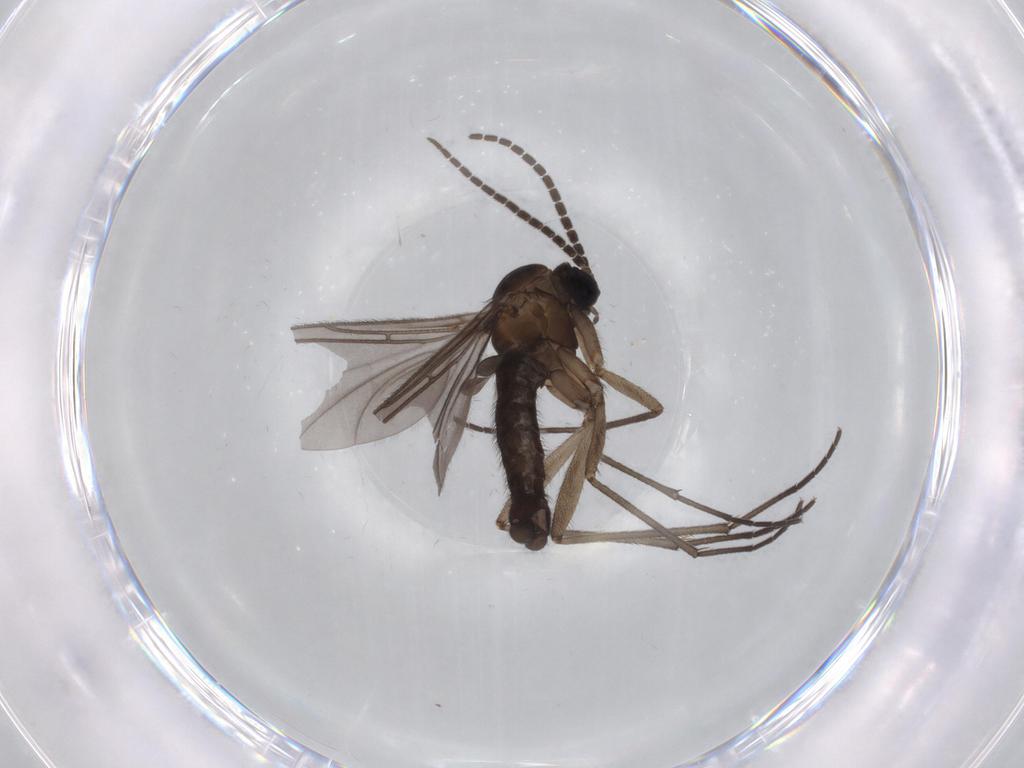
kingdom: Animalia
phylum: Arthropoda
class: Insecta
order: Diptera
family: Sciaridae
